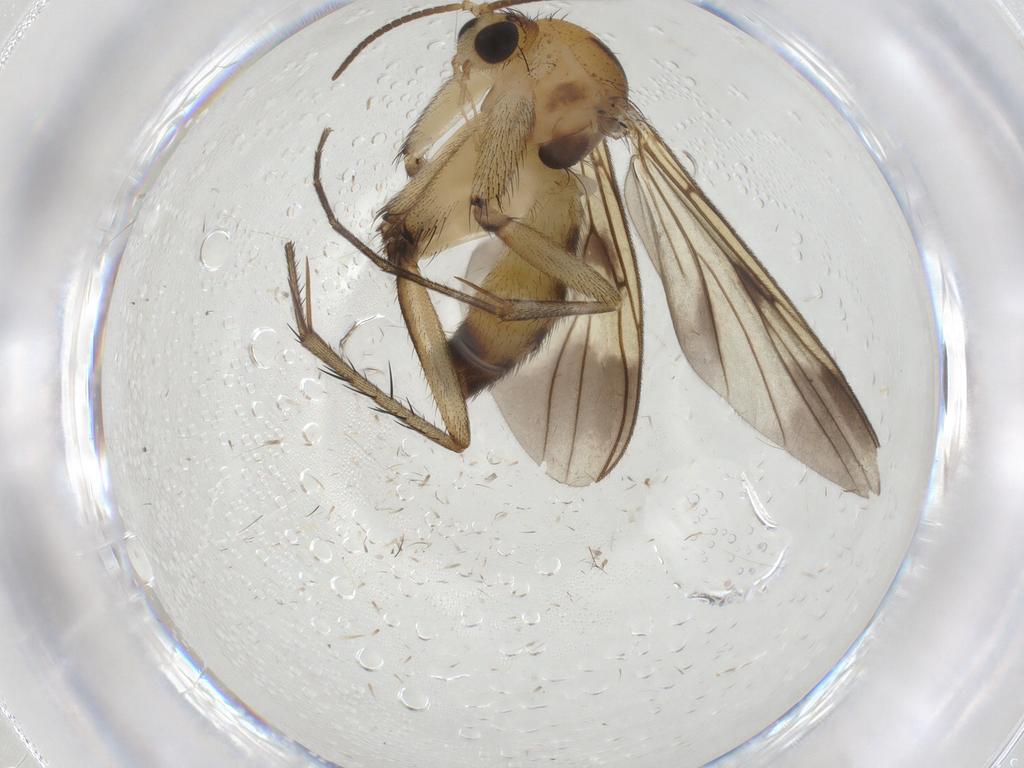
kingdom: Animalia
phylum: Arthropoda
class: Insecta
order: Diptera
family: Mycetophilidae
